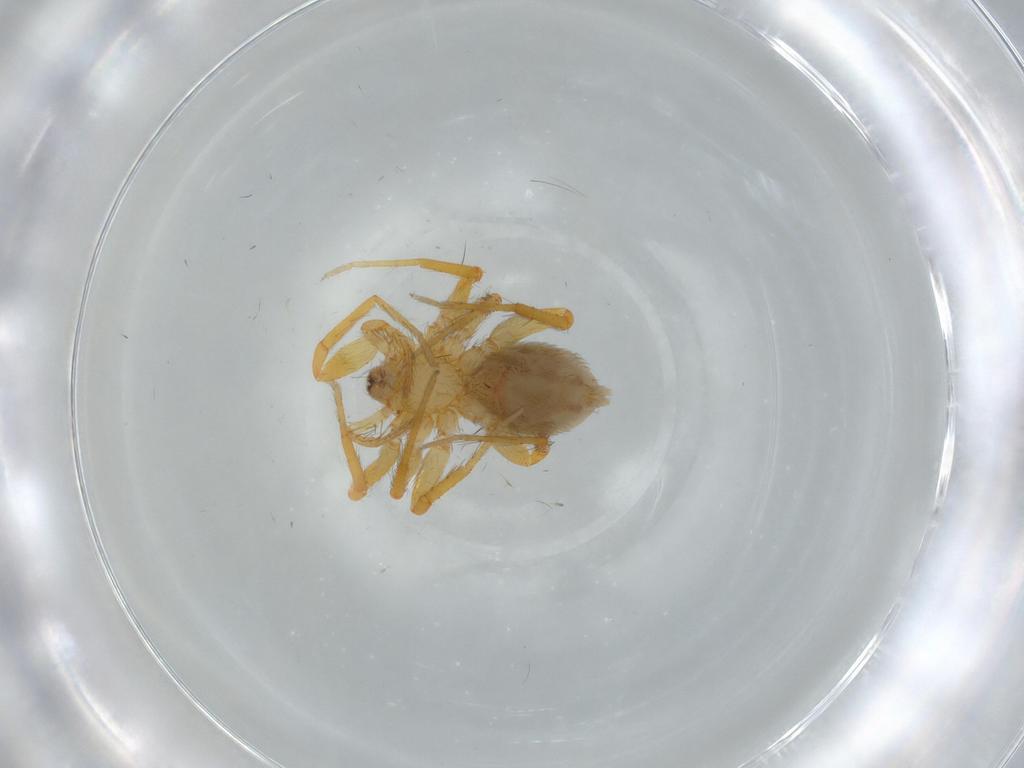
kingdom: Animalia
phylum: Arthropoda
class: Arachnida
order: Araneae
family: Oonopidae
